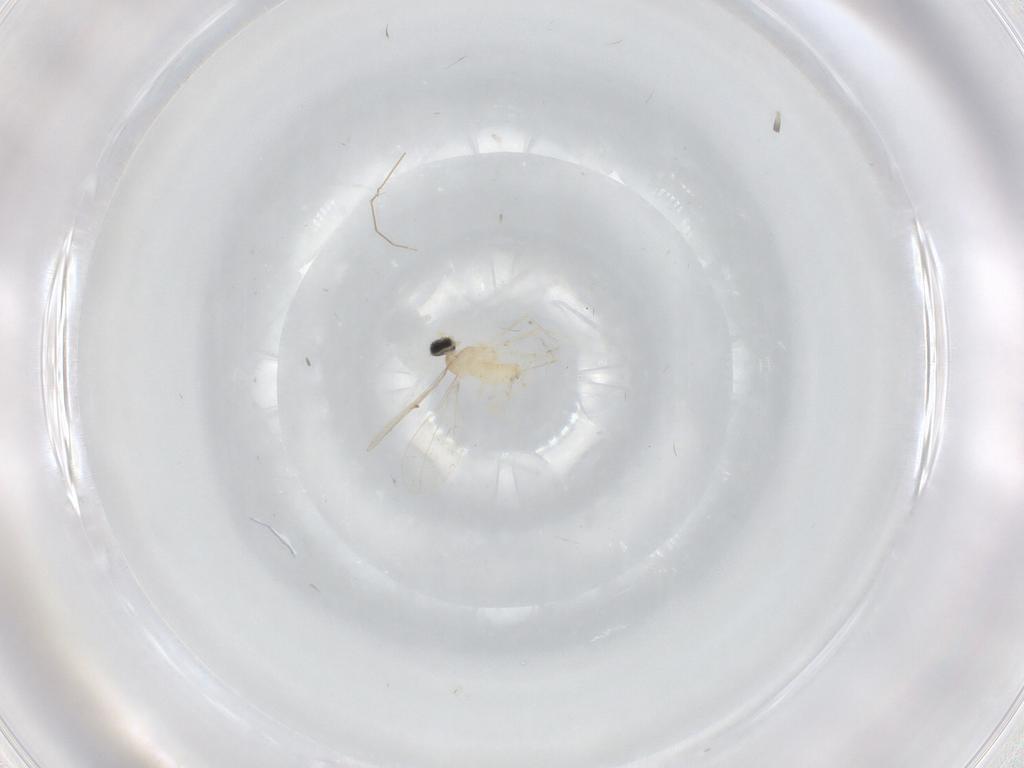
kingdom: Animalia
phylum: Arthropoda
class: Insecta
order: Diptera
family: Cecidomyiidae
